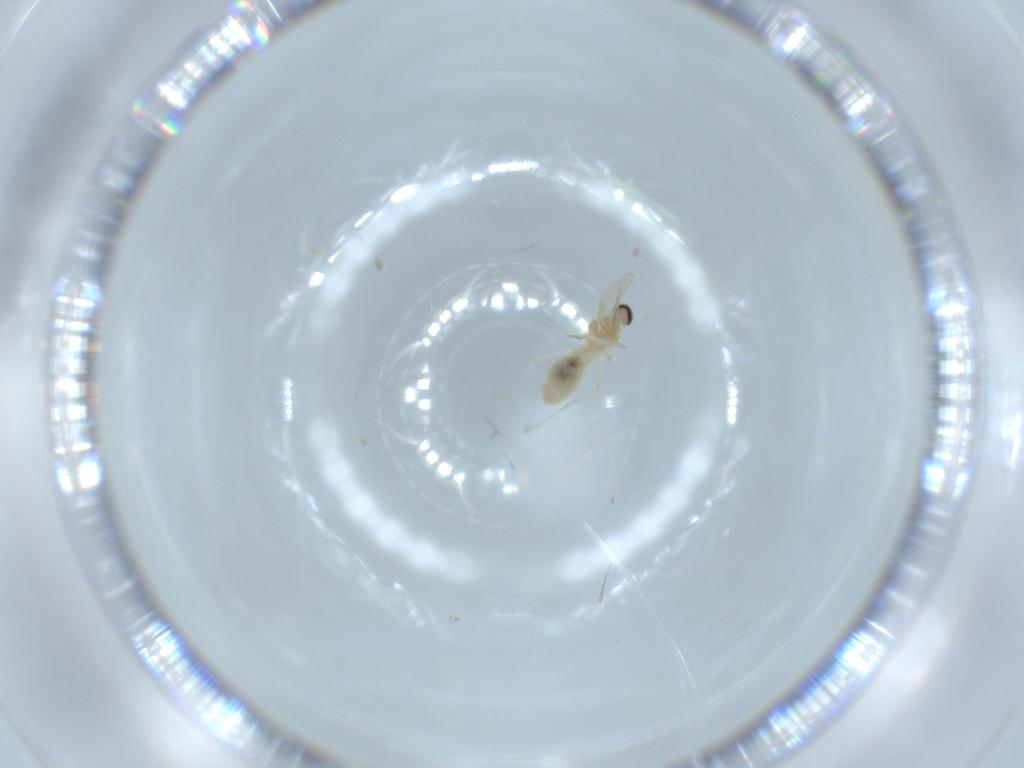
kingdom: Animalia
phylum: Arthropoda
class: Insecta
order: Diptera
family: Cecidomyiidae
